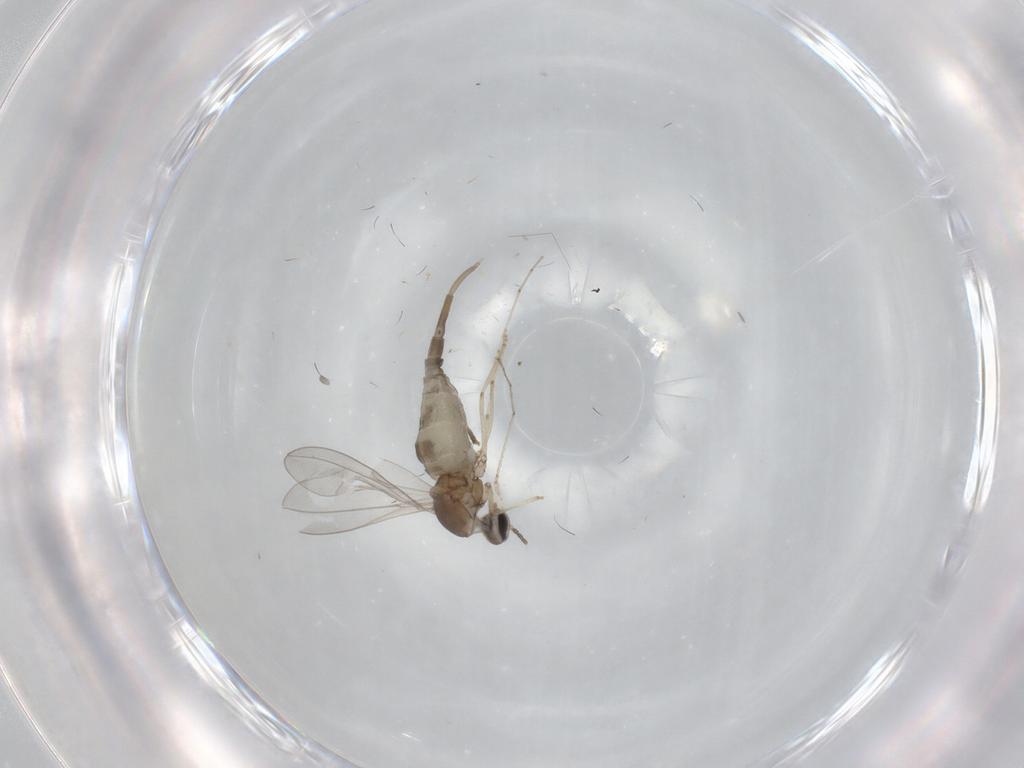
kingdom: Animalia
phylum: Arthropoda
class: Insecta
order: Diptera
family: Cecidomyiidae
